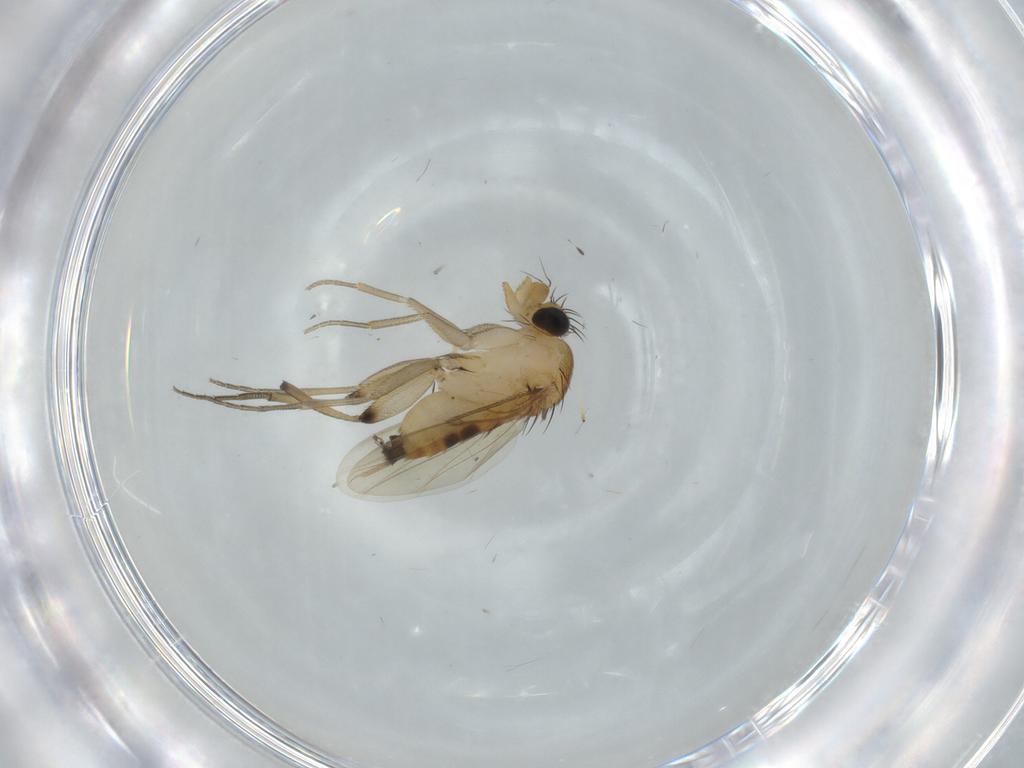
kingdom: Animalia
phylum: Arthropoda
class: Insecta
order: Diptera
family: Phoridae
